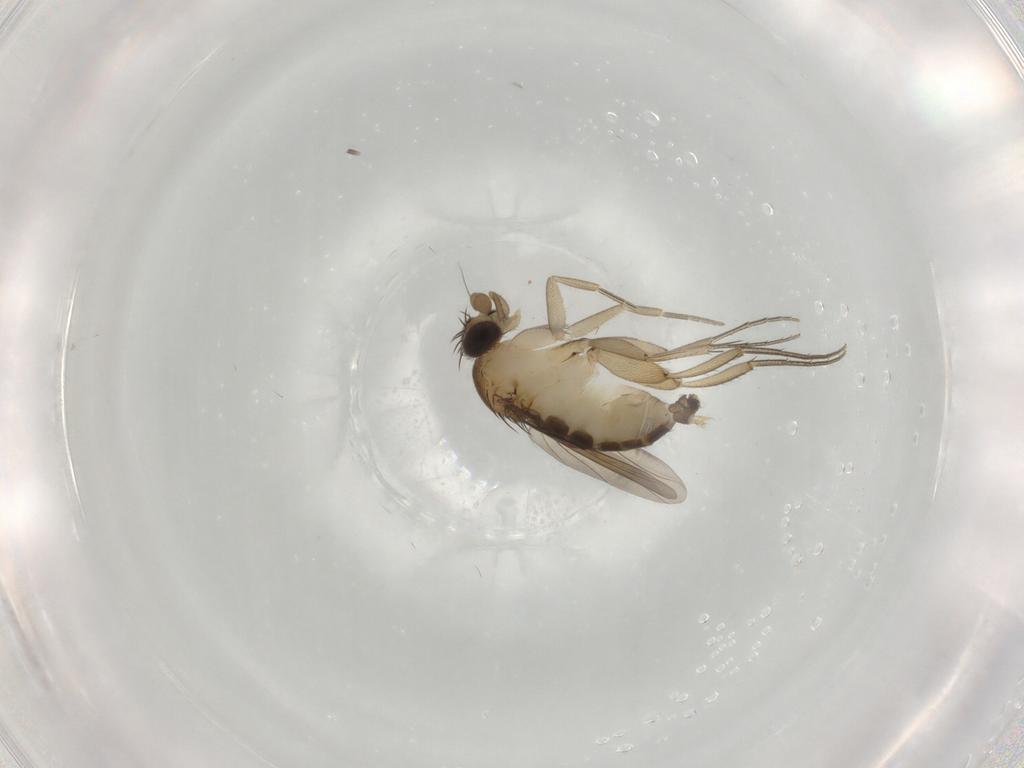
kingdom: Animalia
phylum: Arthropoda
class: Insecta
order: Diptera
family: Phoridae
